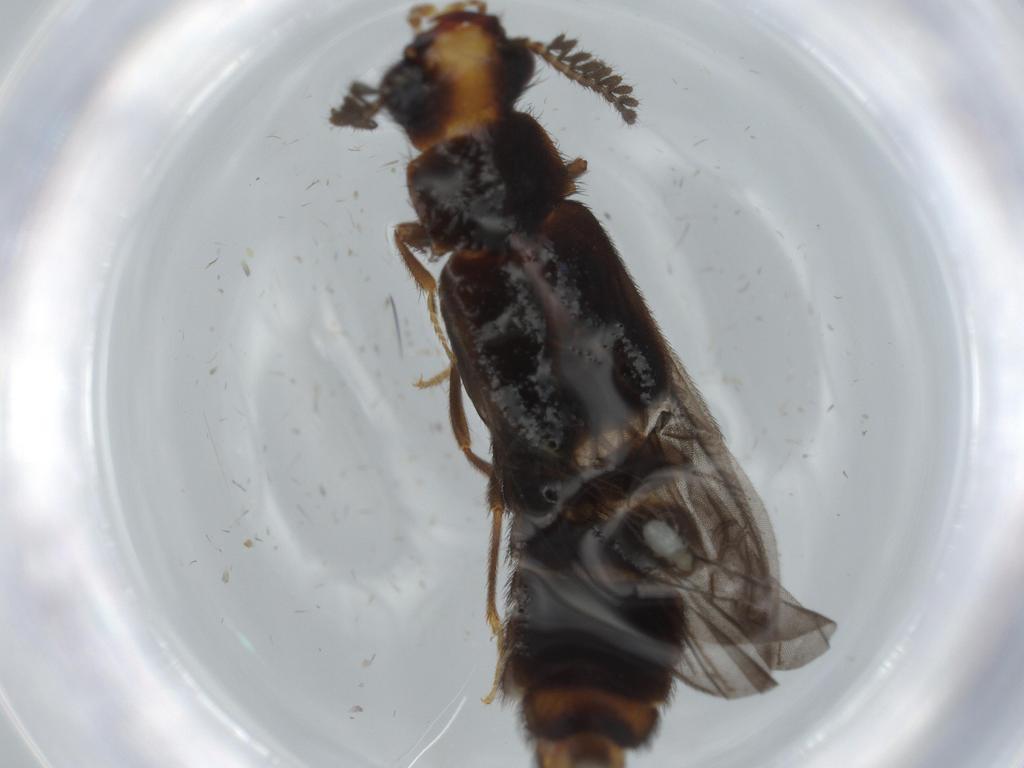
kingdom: Animalia
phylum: Arthropoda
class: Insecta
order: Coleoptera
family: Phengodidae
